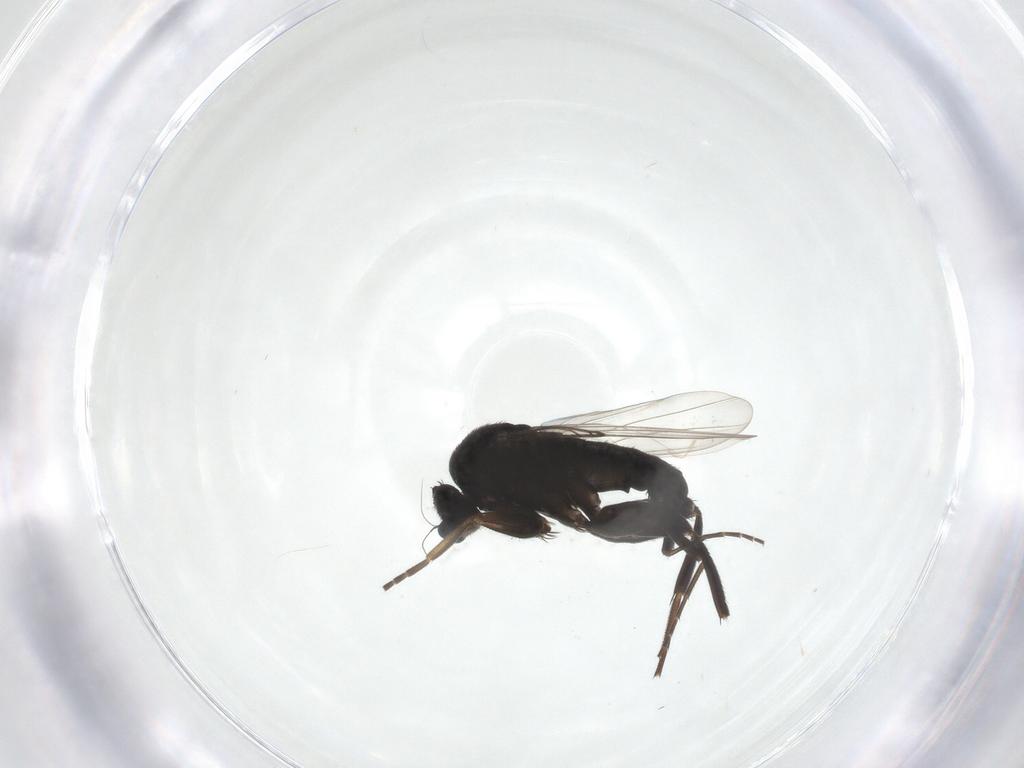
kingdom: Animalia
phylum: Arthropoda
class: Insecta
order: Diptera
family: Phoridae
